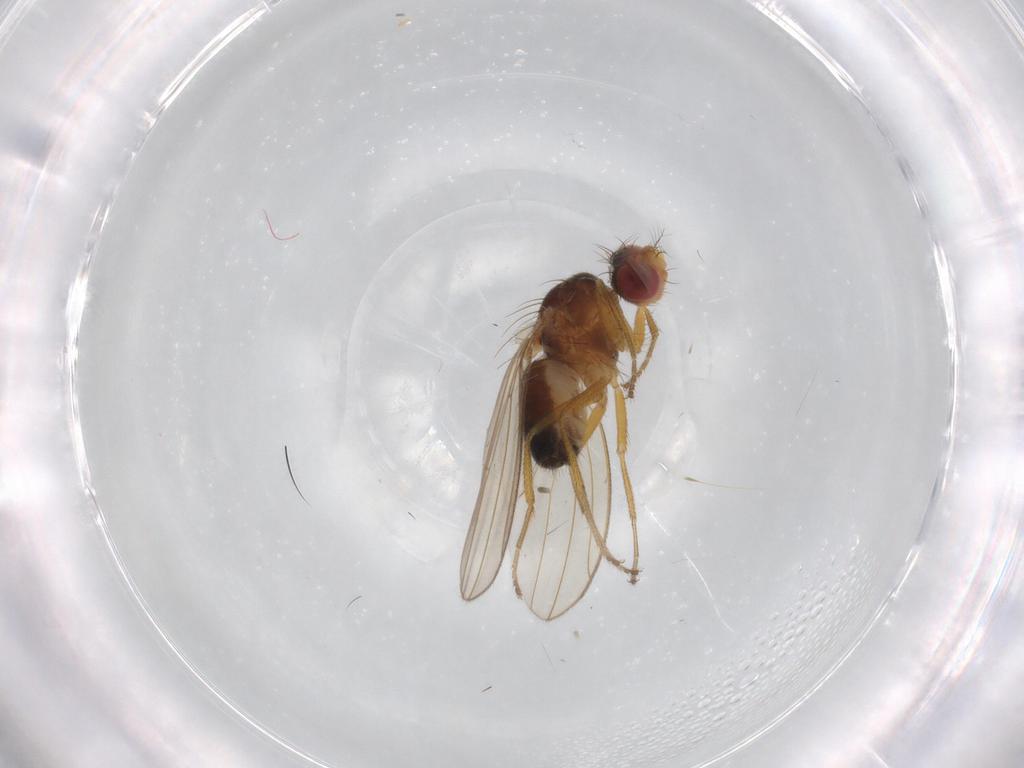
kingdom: Animalia
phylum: Arthropoda
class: Insecta
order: Diptera
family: Drosophilidae
